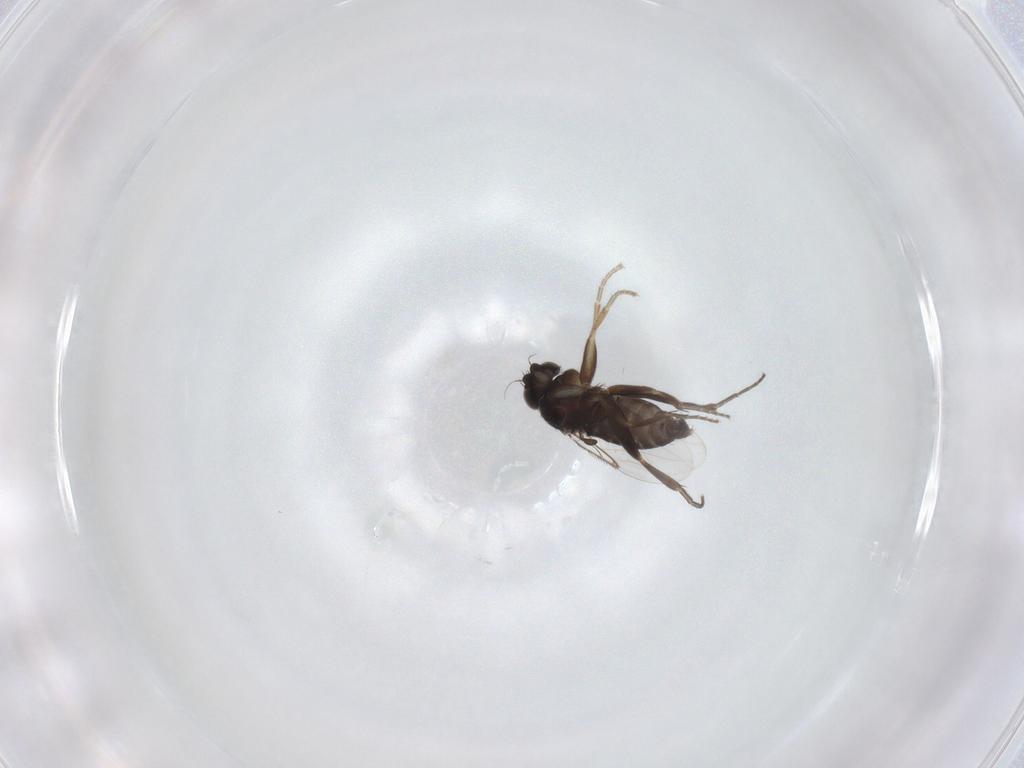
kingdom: Animalia
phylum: Arthropoda
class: Insecta
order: Diptera
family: Phoridae
